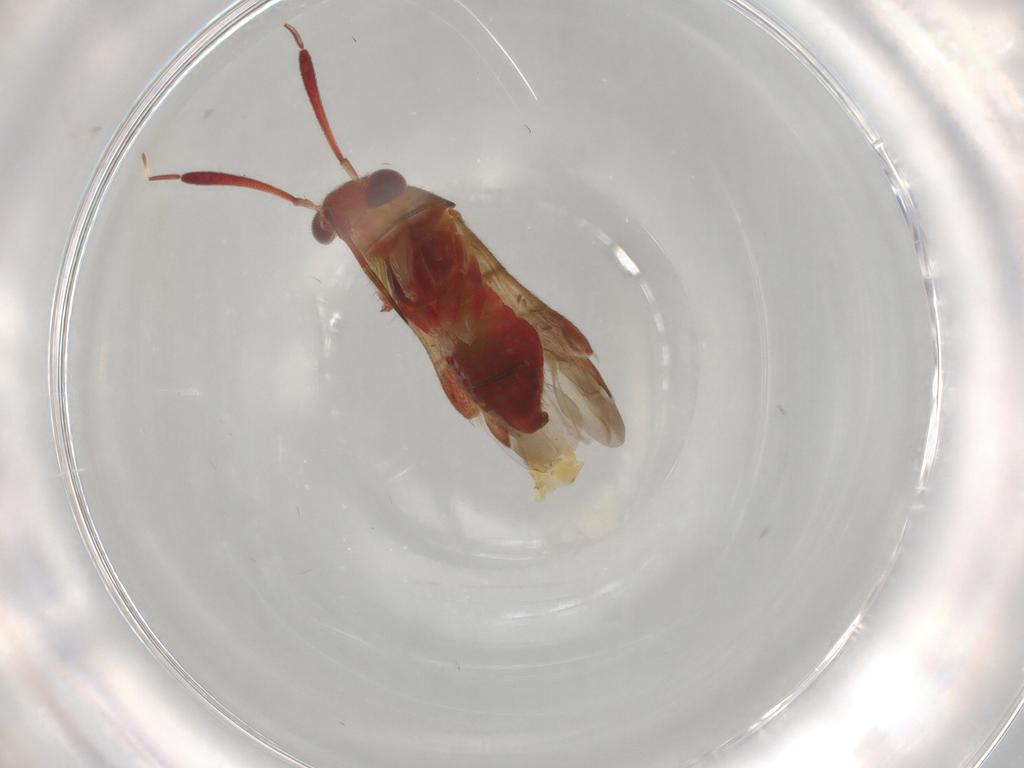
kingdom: Animalia
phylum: Arthropoda
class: Insecta
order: Hemiptera
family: Miridae
